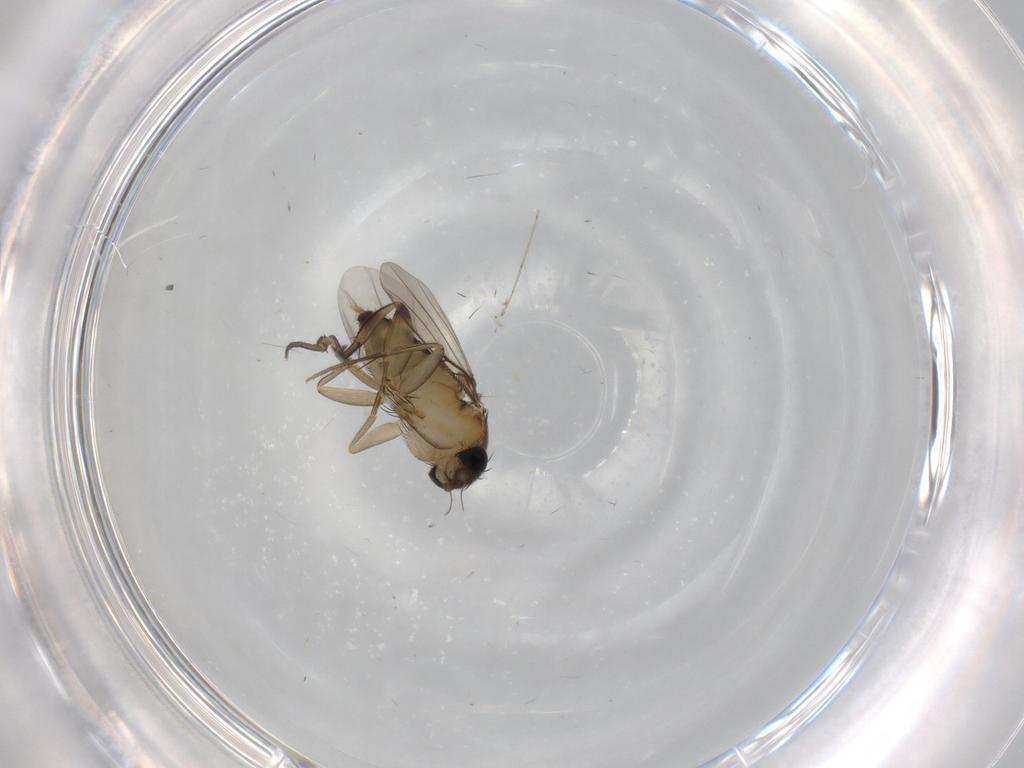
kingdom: Animalia
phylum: Arthropoda
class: Insecta
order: Diptera
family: Phoridae
